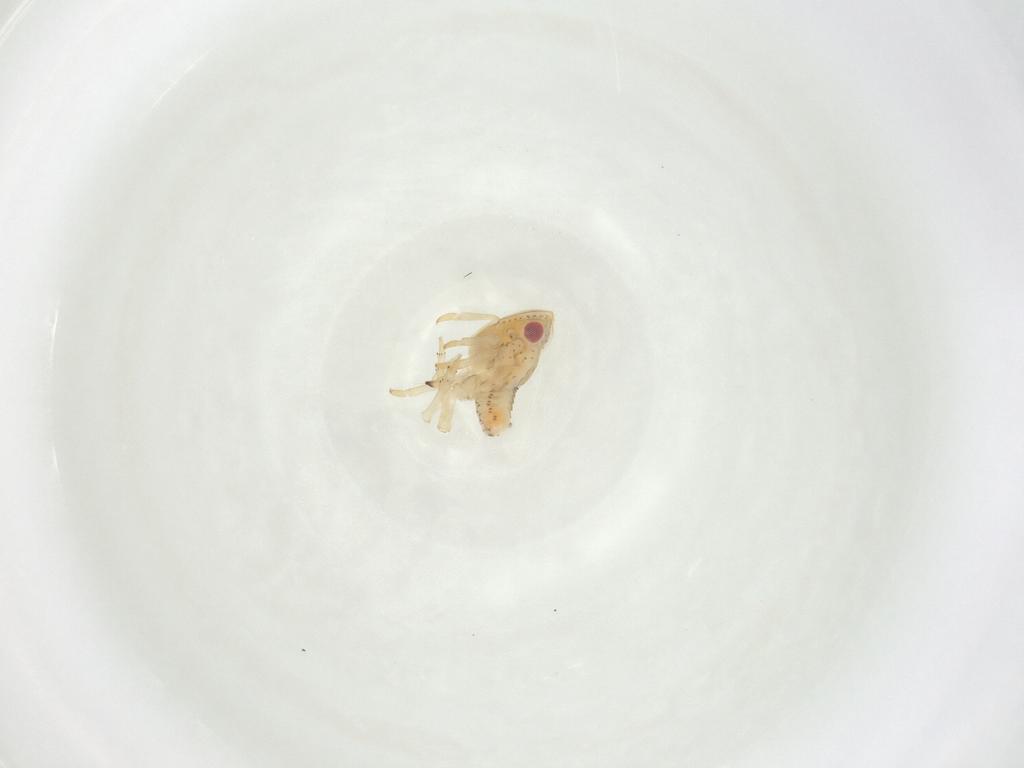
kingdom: Animalia
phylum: Arthropoda
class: Insecta
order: Hemiptera
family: Tropiduchidae
